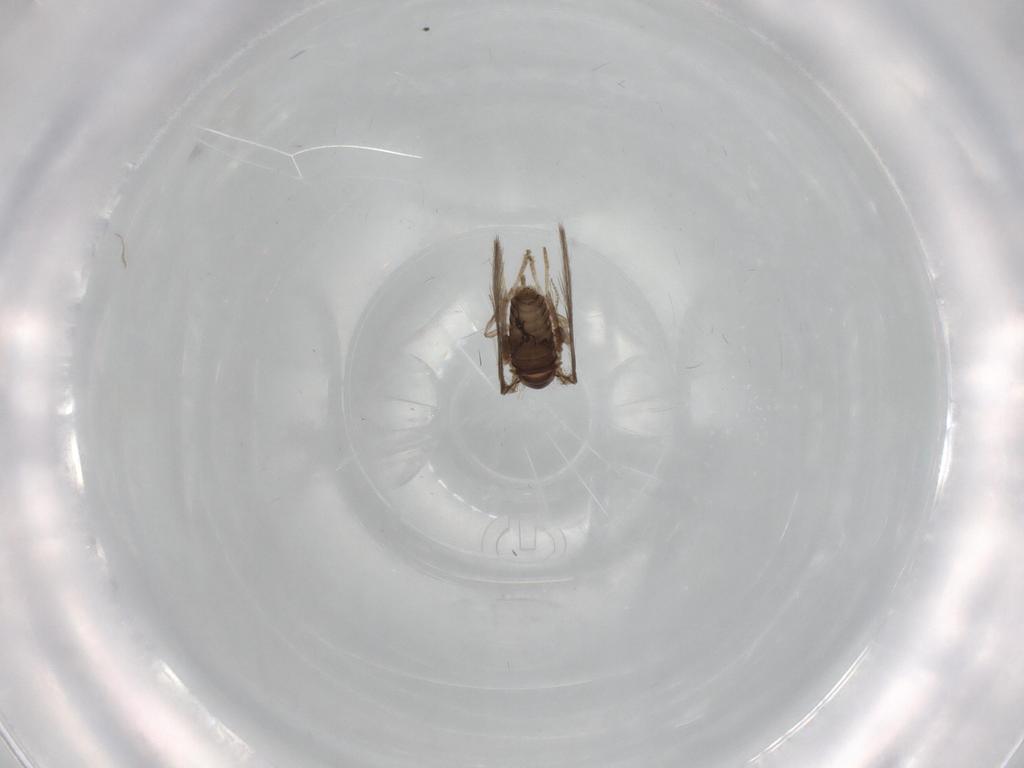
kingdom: Animalia
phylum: Arthropoda
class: Insecta
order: Diptera
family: Psychodidae
